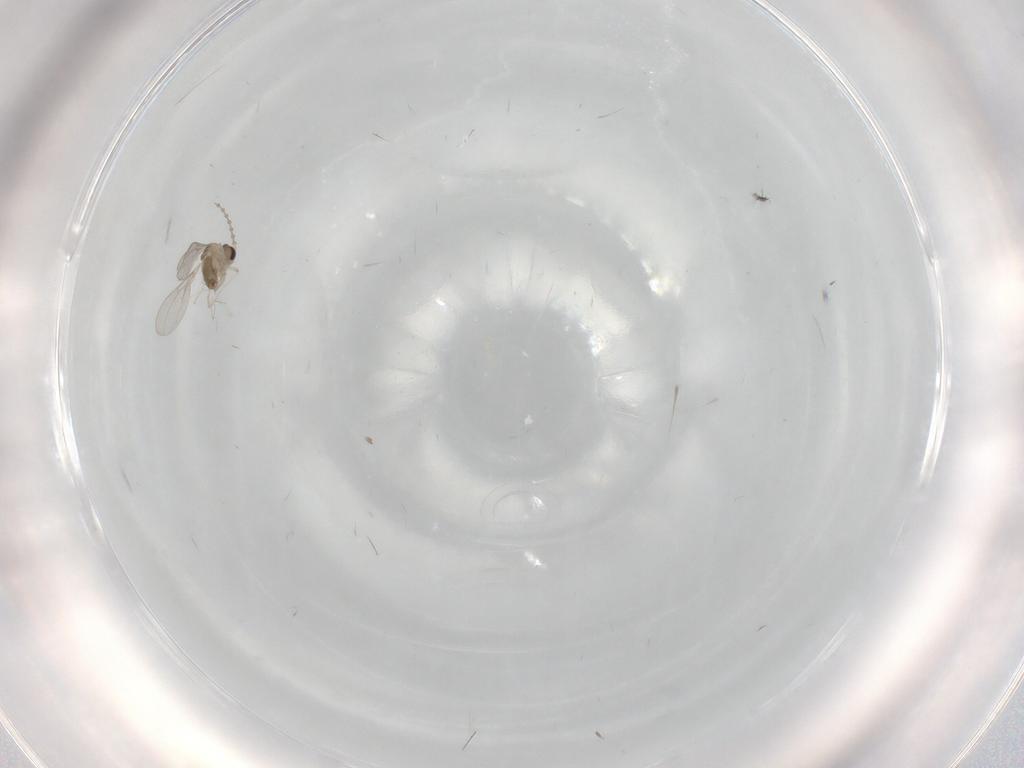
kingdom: Animalia
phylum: Arthropoda
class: Insecta
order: Diptera
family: Cecidomyiidae
